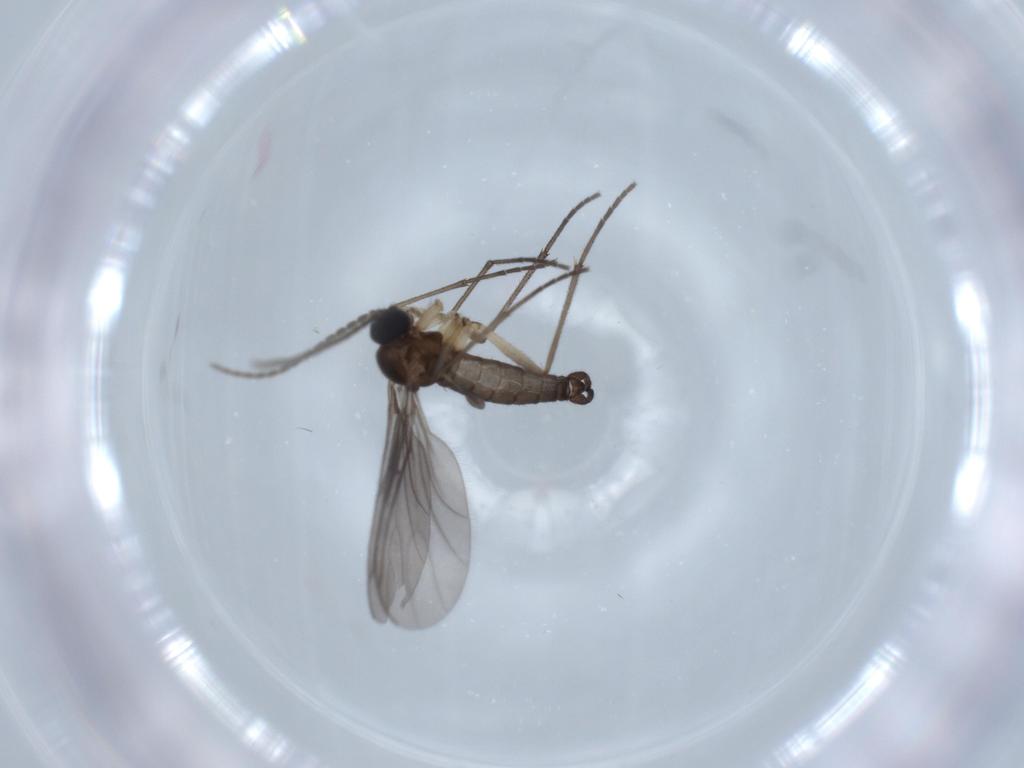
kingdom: Animalia
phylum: Arthropoda
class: Insecta
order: Diptera
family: Sciaridae
